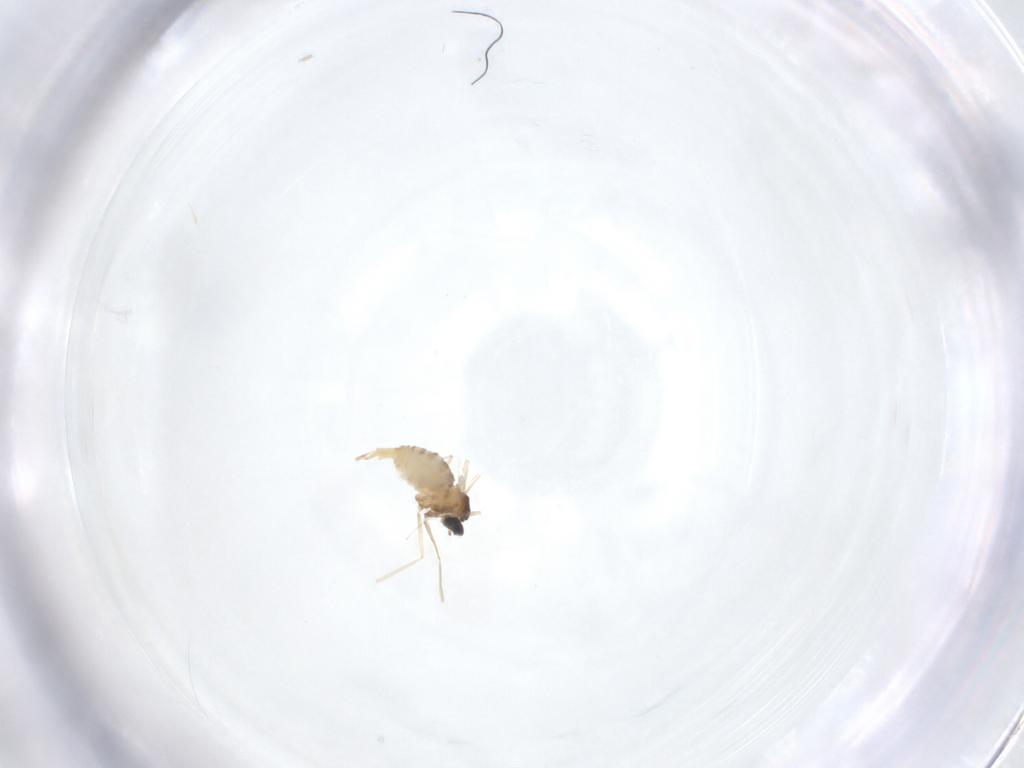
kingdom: Animalia
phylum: Arthropoda
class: Insecta
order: Diptera
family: Cecidomyiidae
